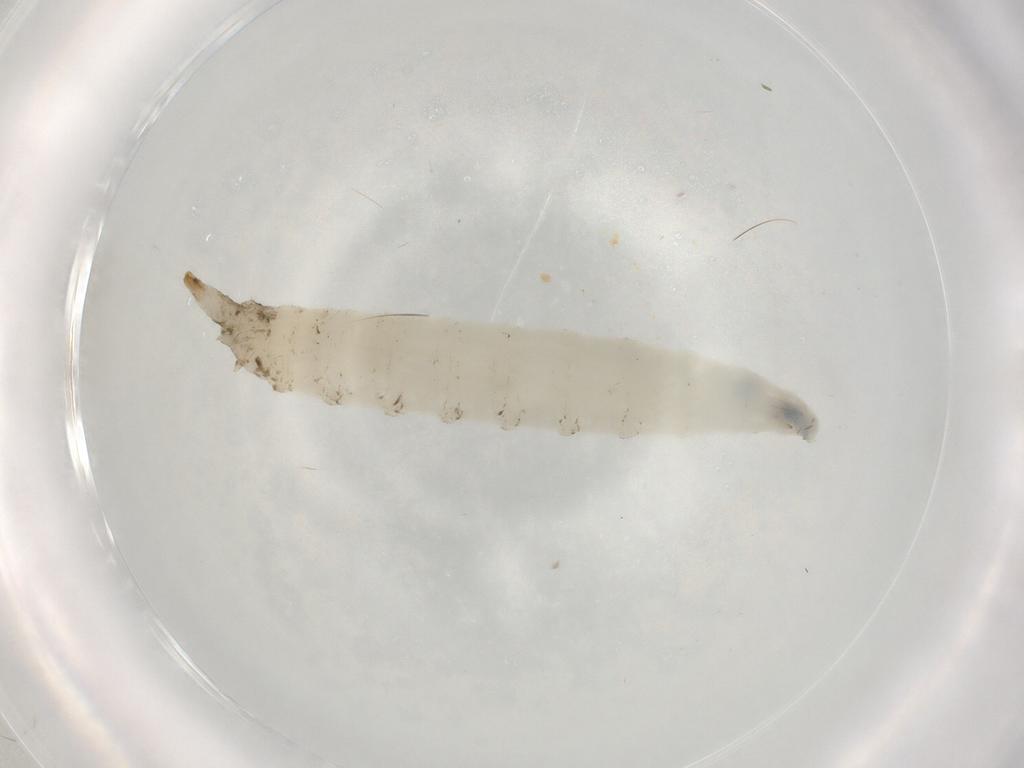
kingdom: Animalia
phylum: Arthropoda
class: Insecta
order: Diptera
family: Drosophilidae
